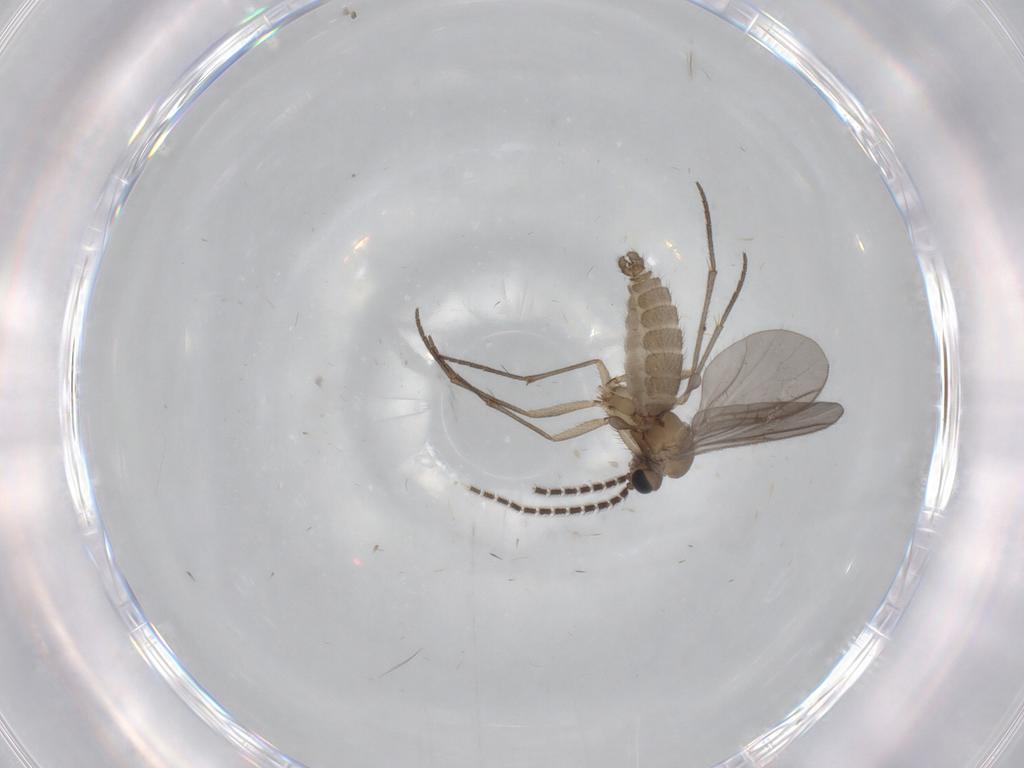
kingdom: Animalia
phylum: Arthropoda
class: Insecta
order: Diptera
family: Sciaridae
